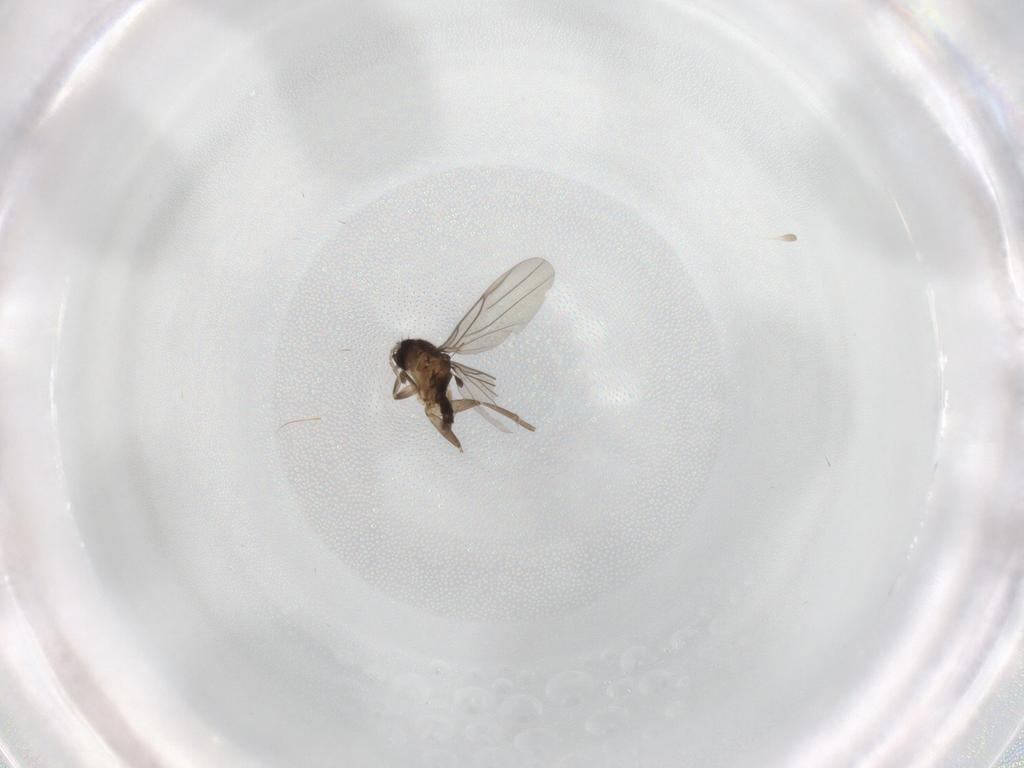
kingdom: Animalia
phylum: Arthropoda
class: Insecta
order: Diptera
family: Phoridae
